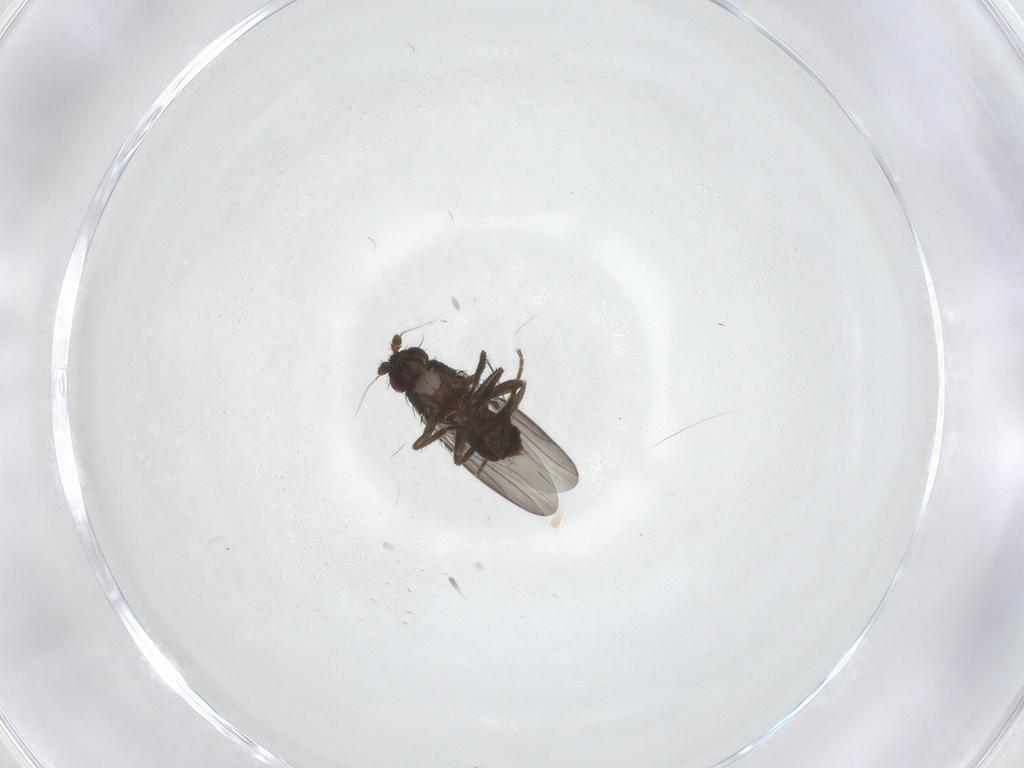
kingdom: Animalia
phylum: Arthropoda
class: Insecta
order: Diptera
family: Sphaeroceridae
